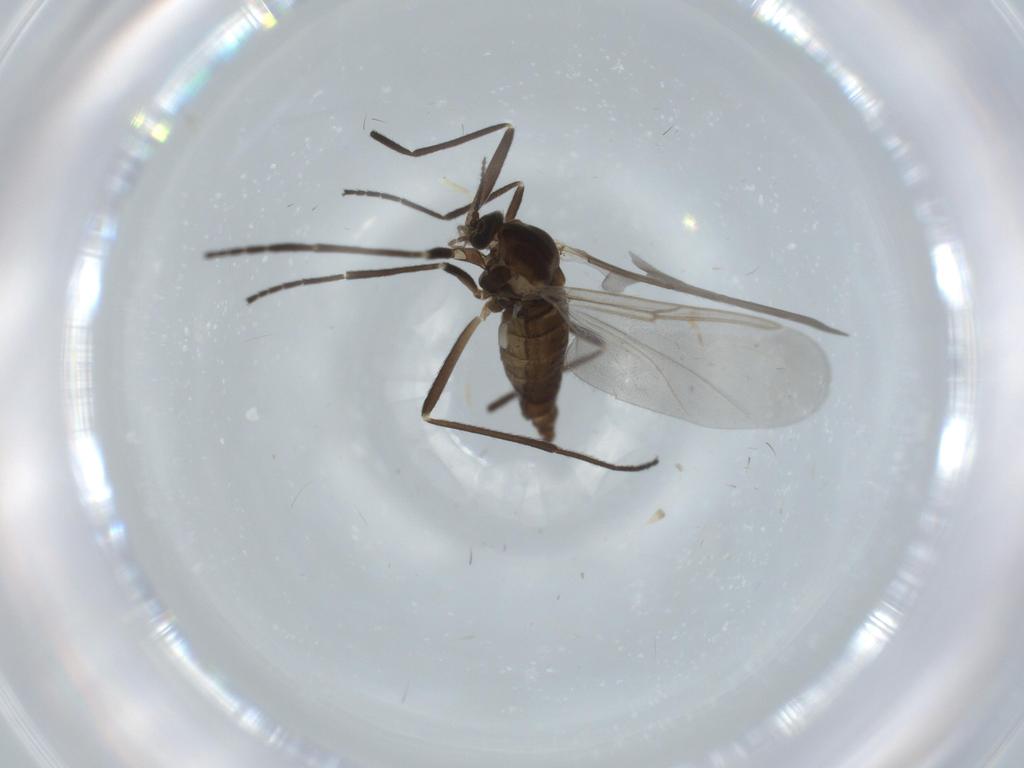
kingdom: Animalia
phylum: Arthropoda
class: Insecta
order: Diptera
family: Cecidomyiidae
